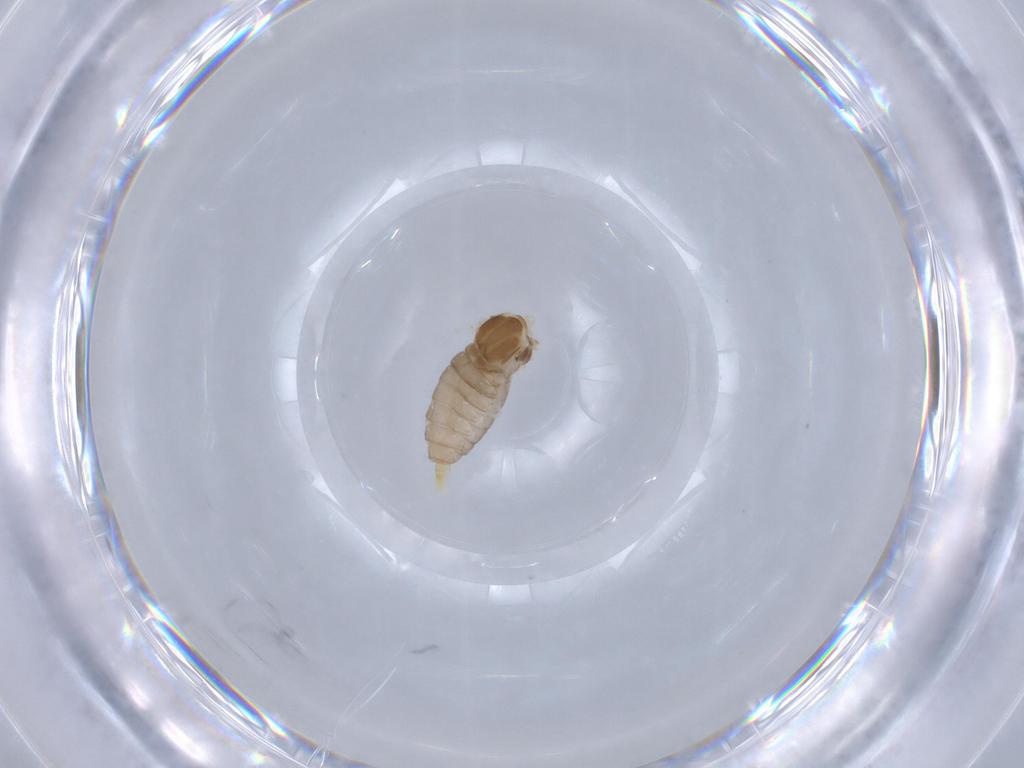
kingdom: Animalia
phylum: Arthropoda
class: Insecta
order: Diptera
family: Cecidomyiidae
